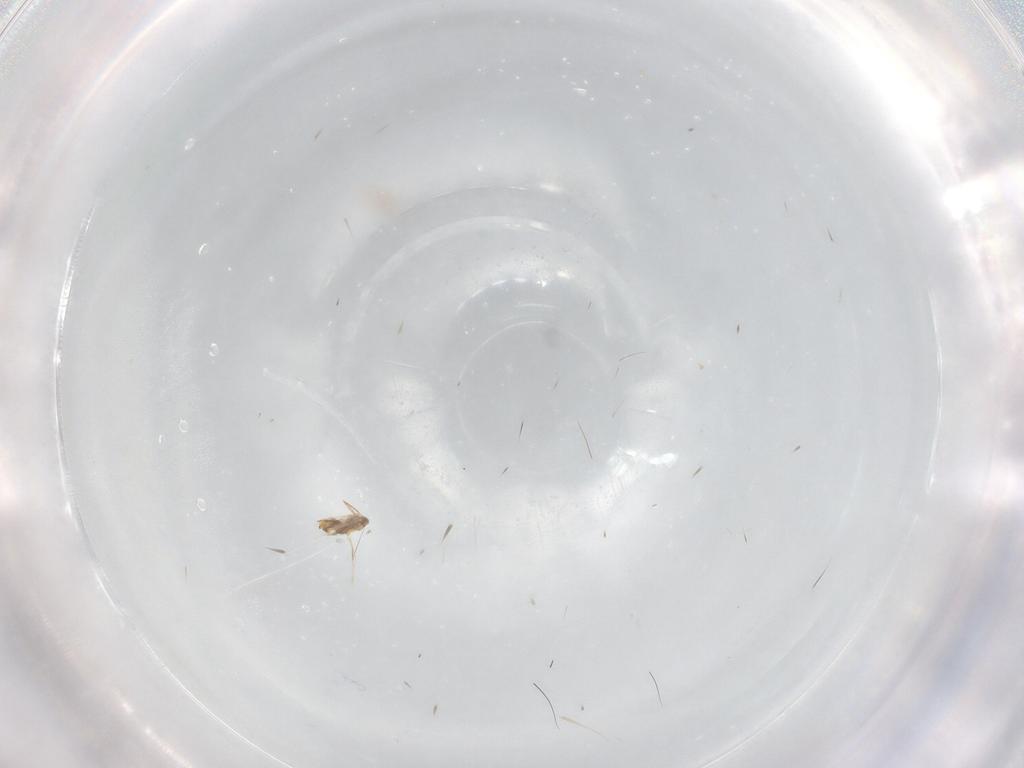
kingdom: Animalia
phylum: Arthropoda
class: Insecta
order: Hymenoptera
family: Aphelinidae
